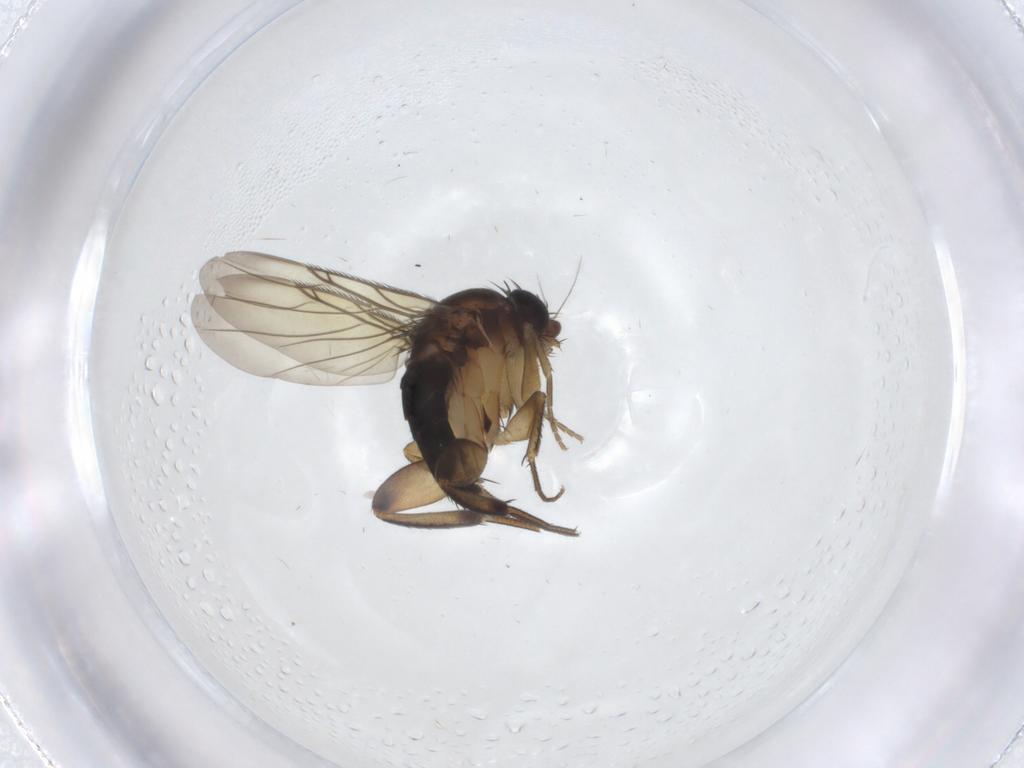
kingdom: Animalia
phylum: Arthropoda
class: Insecta
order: Diptera
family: Phoridae
